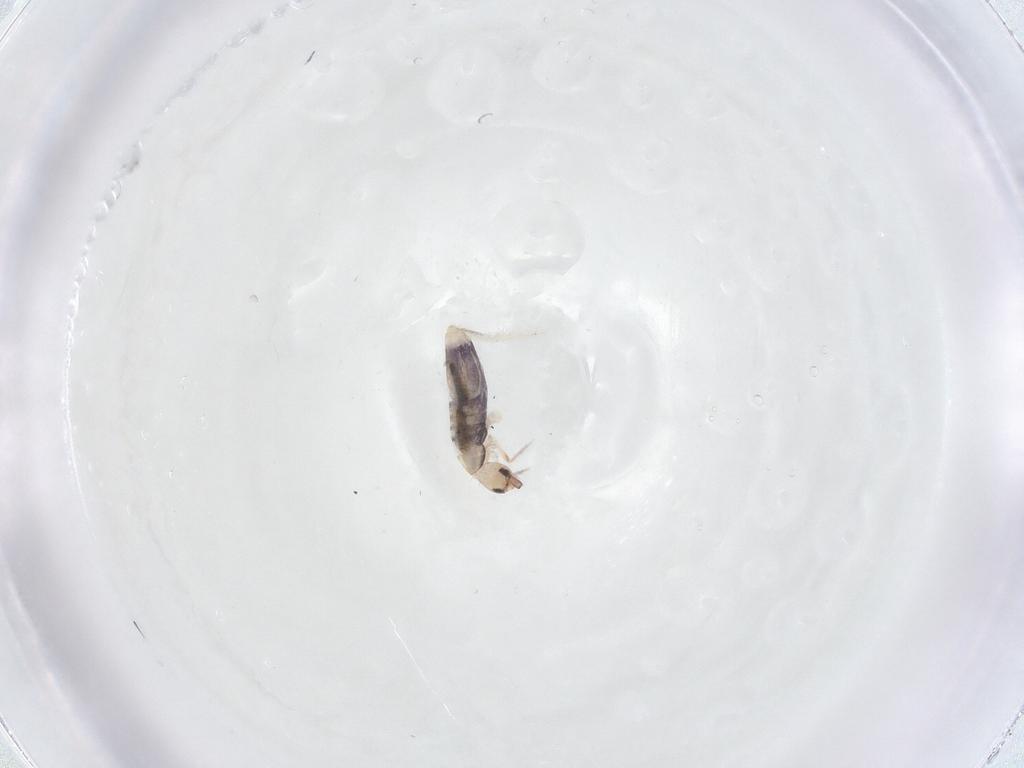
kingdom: Animalia
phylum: Arthropoda
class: Collembola
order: Entomobryomorpha
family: Entomobryidae
